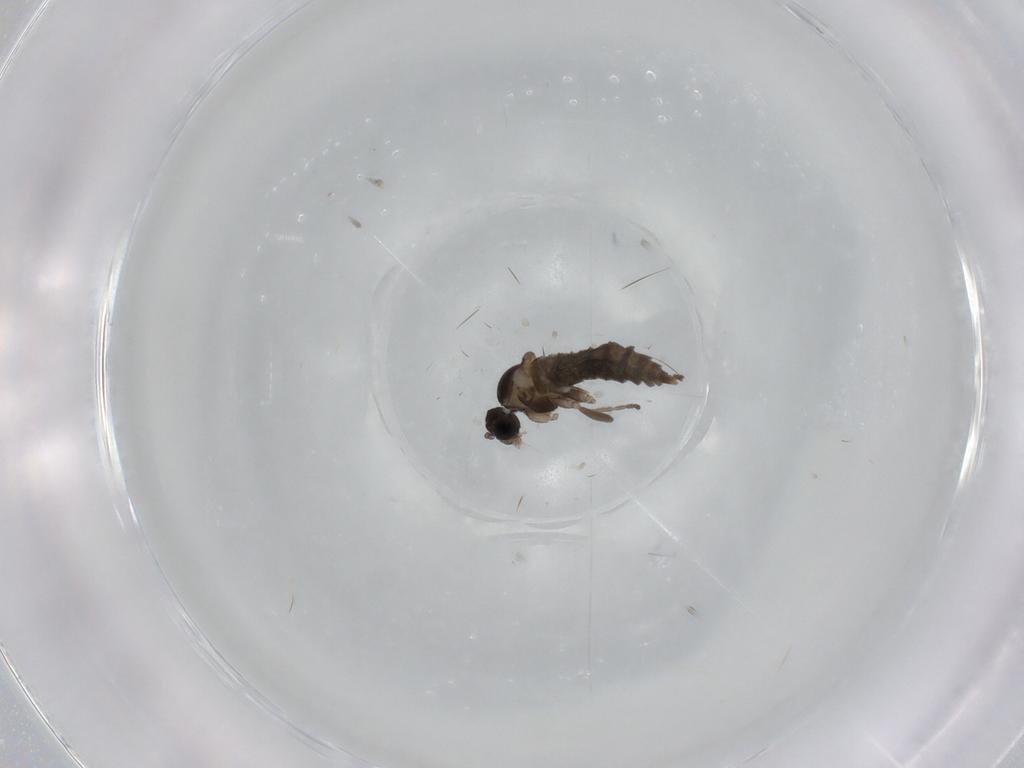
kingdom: Animalia
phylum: Arthropoda
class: Insecta
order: Diptera
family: Cecidomyiidae
